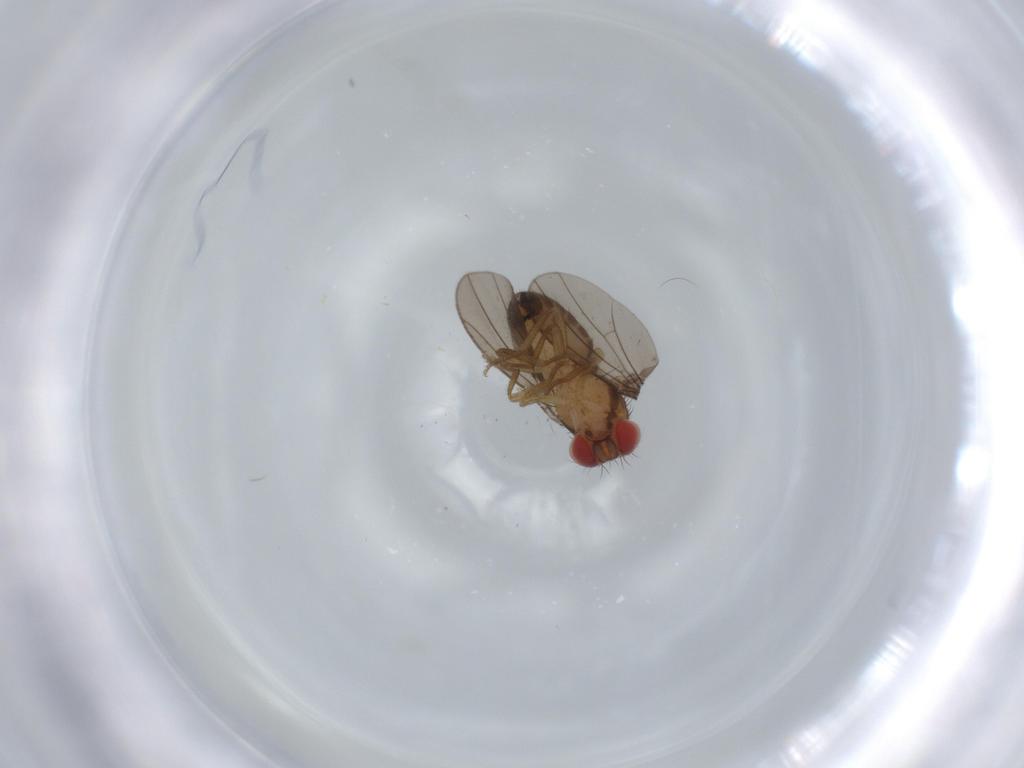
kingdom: Animalia
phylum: Arthropoda
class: Insecta
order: Diptera
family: Drosophilidae
